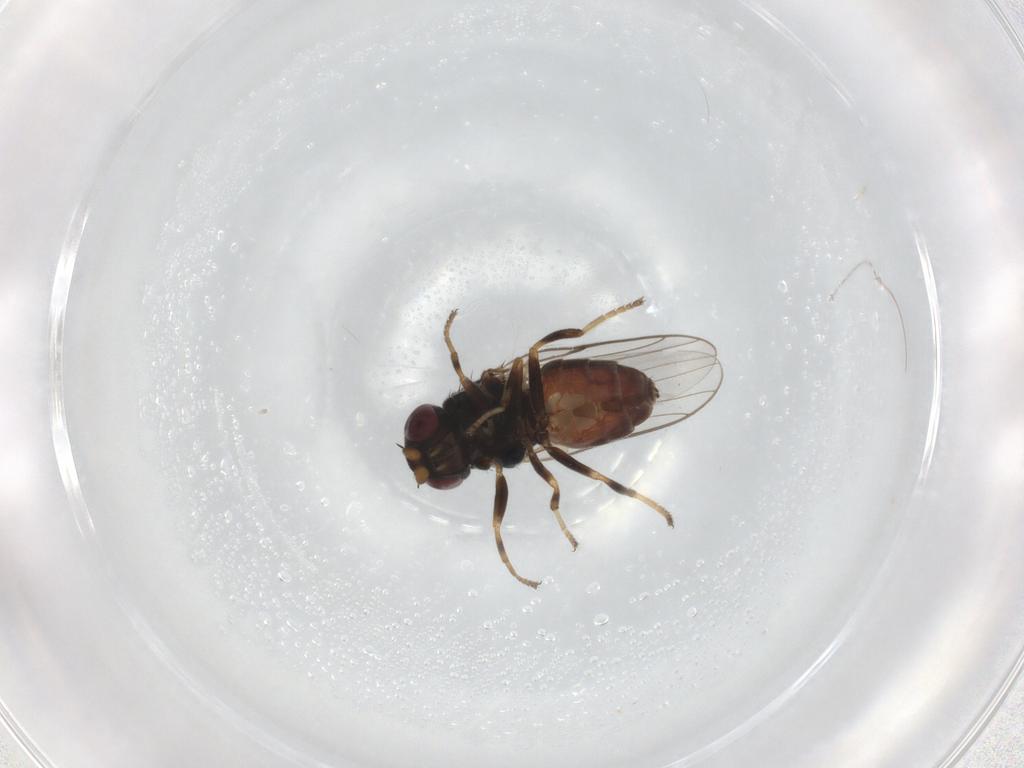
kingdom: Animalia
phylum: Arthropoda
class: Insecta
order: Diptera
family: Chloropidae
